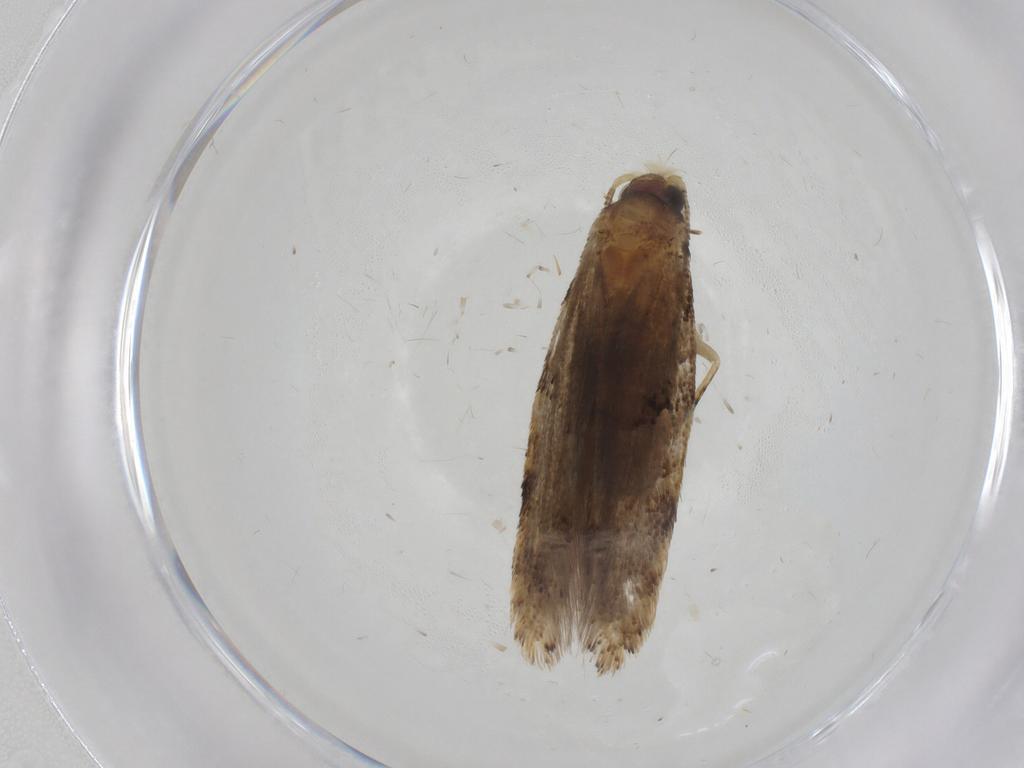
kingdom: Animalia
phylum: Arthropoda
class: Insecta
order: Lepidoptera
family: Tineidae
